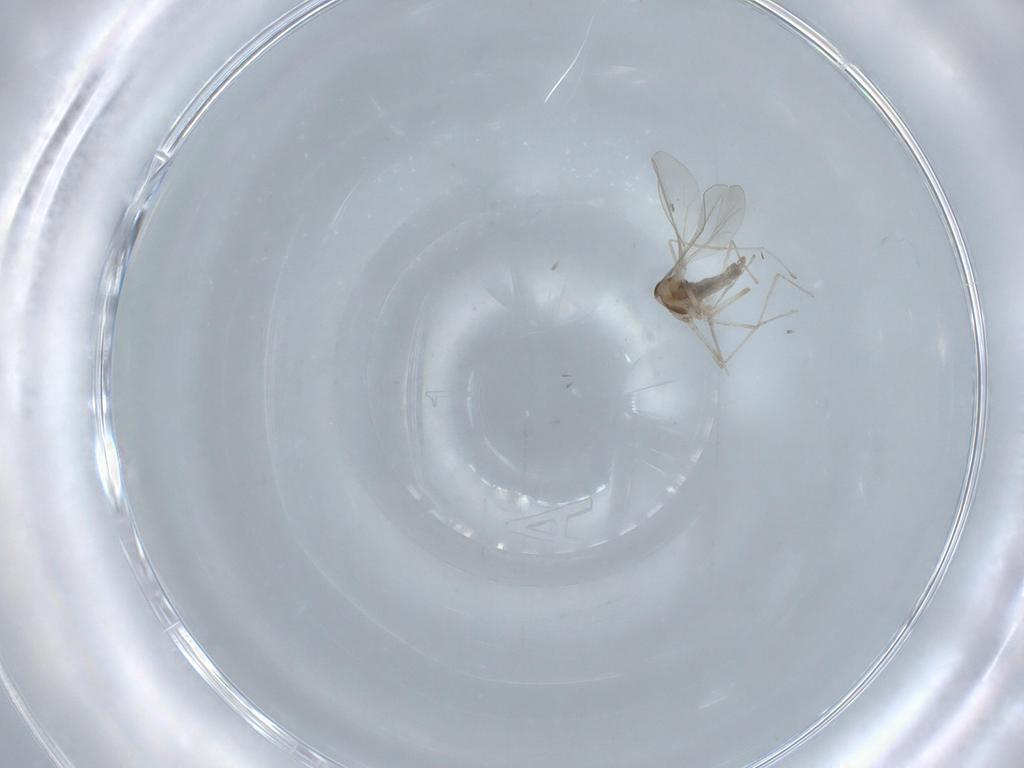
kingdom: Animalia
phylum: Arthropoda
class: Insecta
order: Diptera
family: Cecidomyiidae
